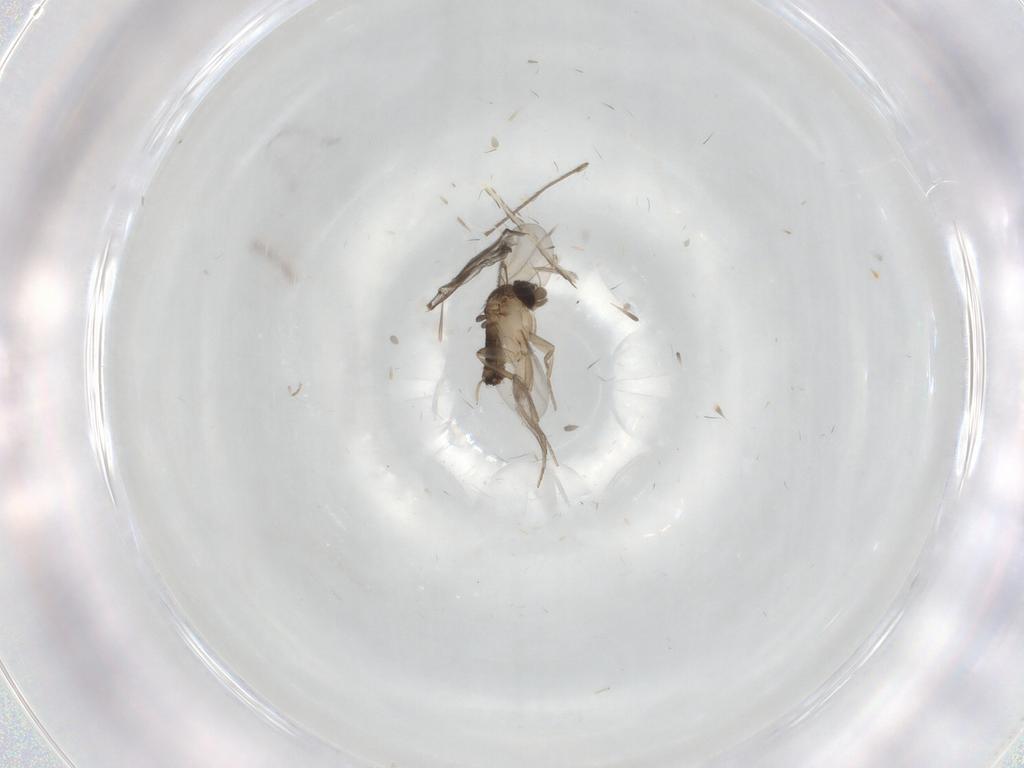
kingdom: Animalia
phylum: Arthropoda
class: Insecta
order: Diptera
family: Phoridae
